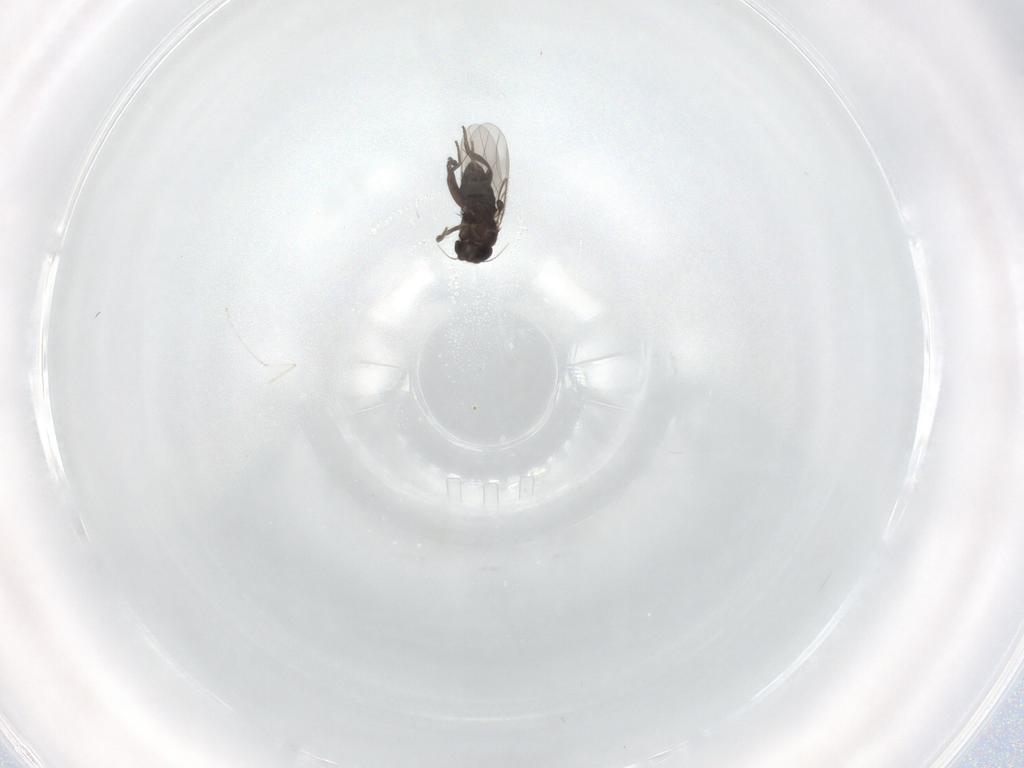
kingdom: Animalia
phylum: Arthropoda
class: Insecta
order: Diptera
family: Phoridae
